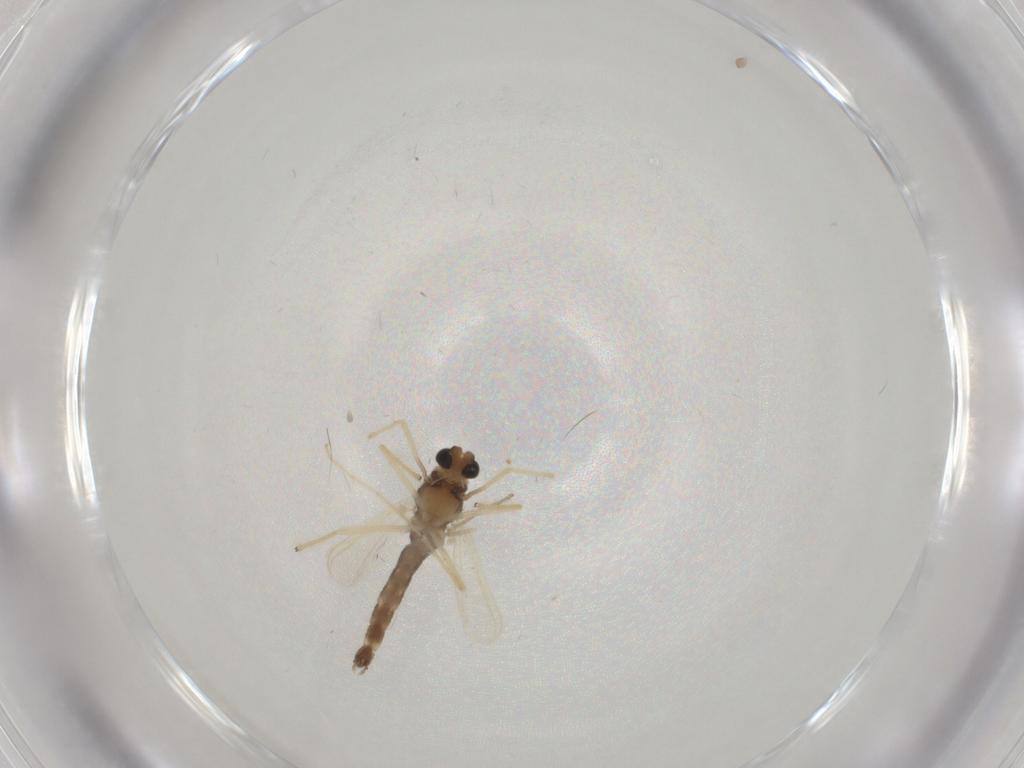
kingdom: Animalia
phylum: Arthropoda
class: Insecta
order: Diptera
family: Chironomidae
